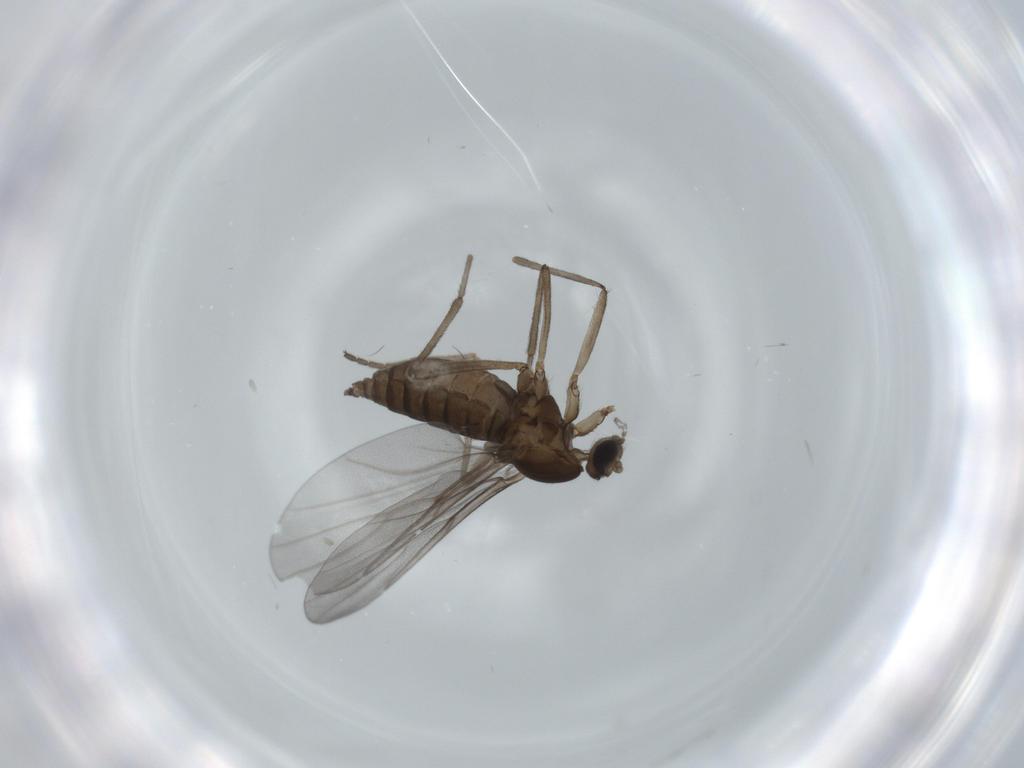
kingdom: Animalia
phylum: Arthropoda
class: Insecta
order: Diptera
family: Cecidomyiidae
